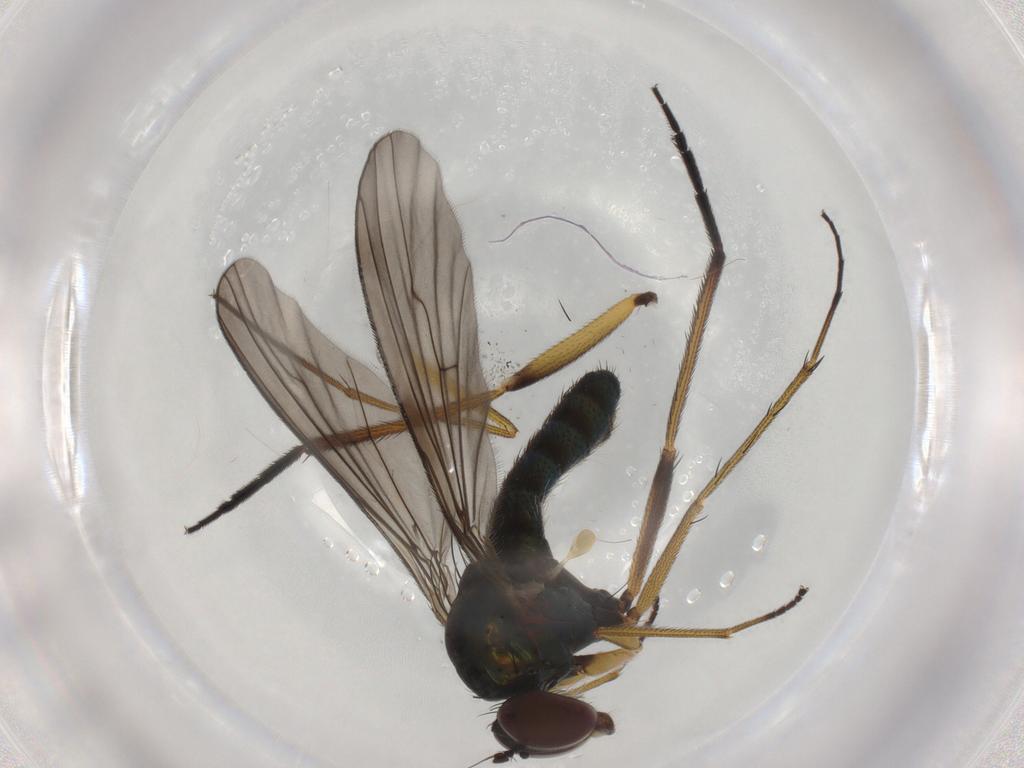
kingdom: Animalia
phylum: Arthropoda
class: Insecta
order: Diptera
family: Dolichopodidae
